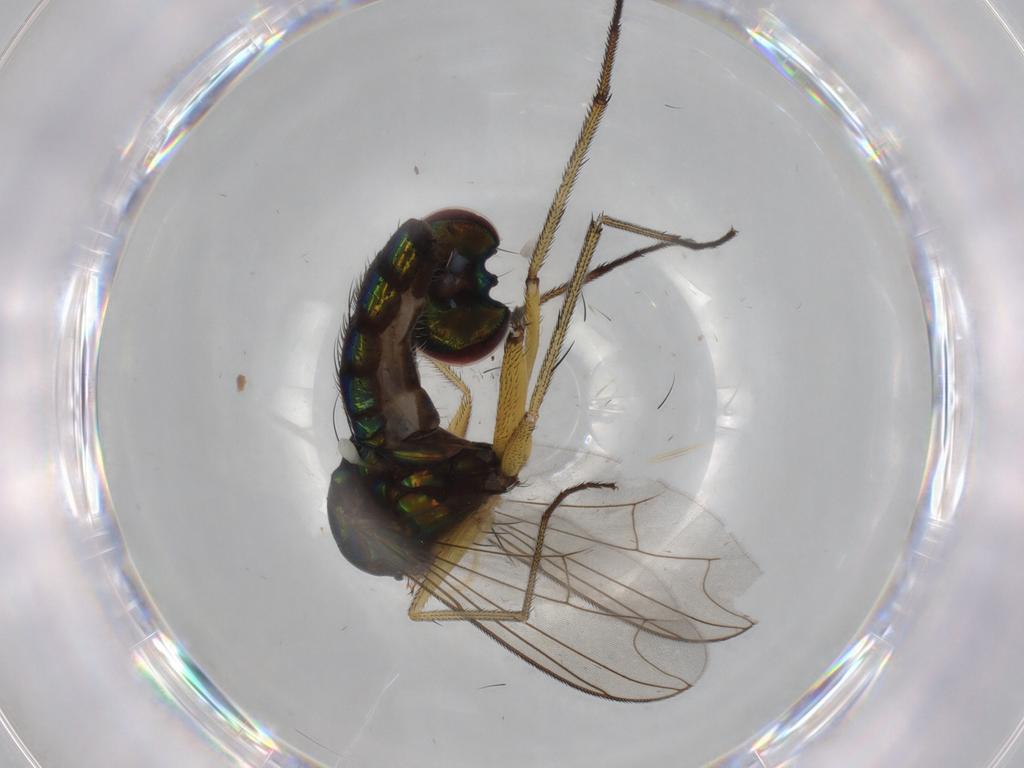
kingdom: Animalia
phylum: Arthropoda
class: Insecta
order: Diptera
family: Dolichopodidae
